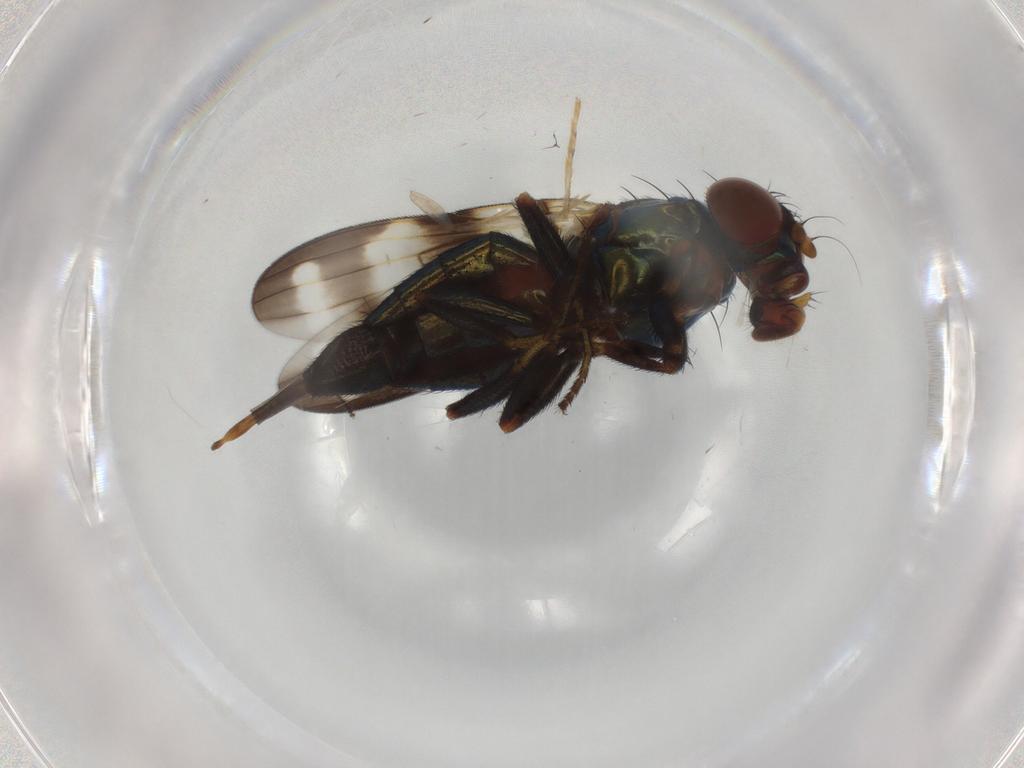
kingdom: Animalia
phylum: Arthropoda
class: Insecta
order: Diptera
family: Ulidiidae
